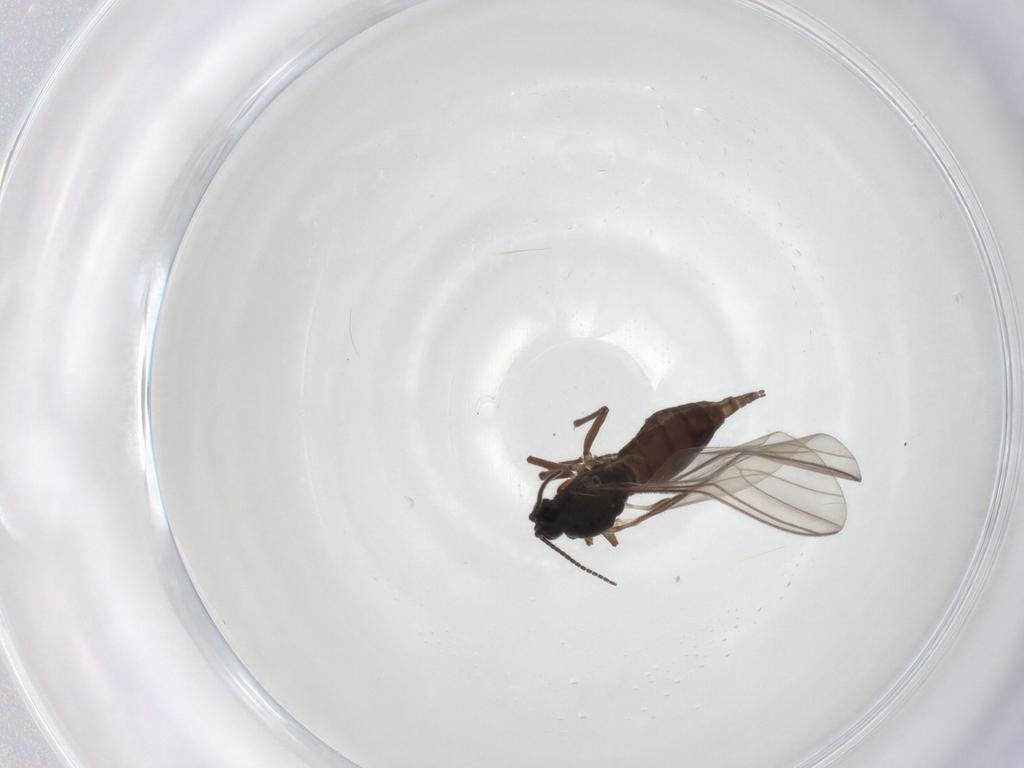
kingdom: Animalia
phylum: Arthropoda
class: Insecta
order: Diptera
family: Sciaridae
